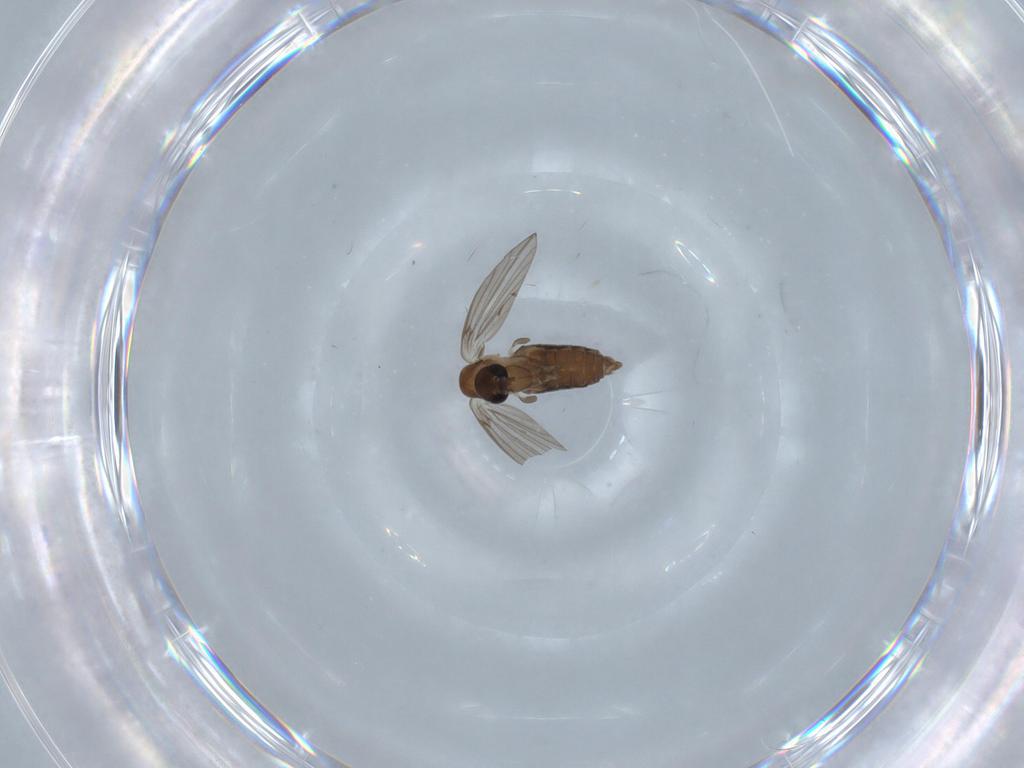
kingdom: Animalia
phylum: Arthropoda
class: Insecta
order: Diptera
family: Psychodidae
